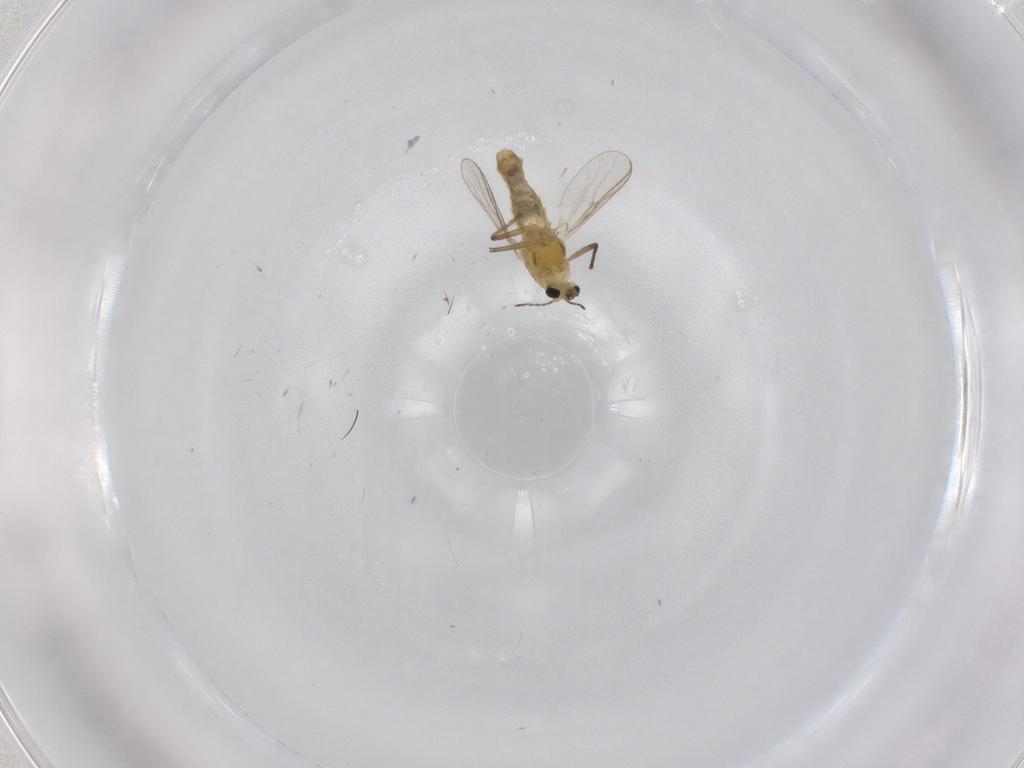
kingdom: Animalia
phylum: Arthropoda
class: Insecta
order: Diptera
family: Chironomidae
